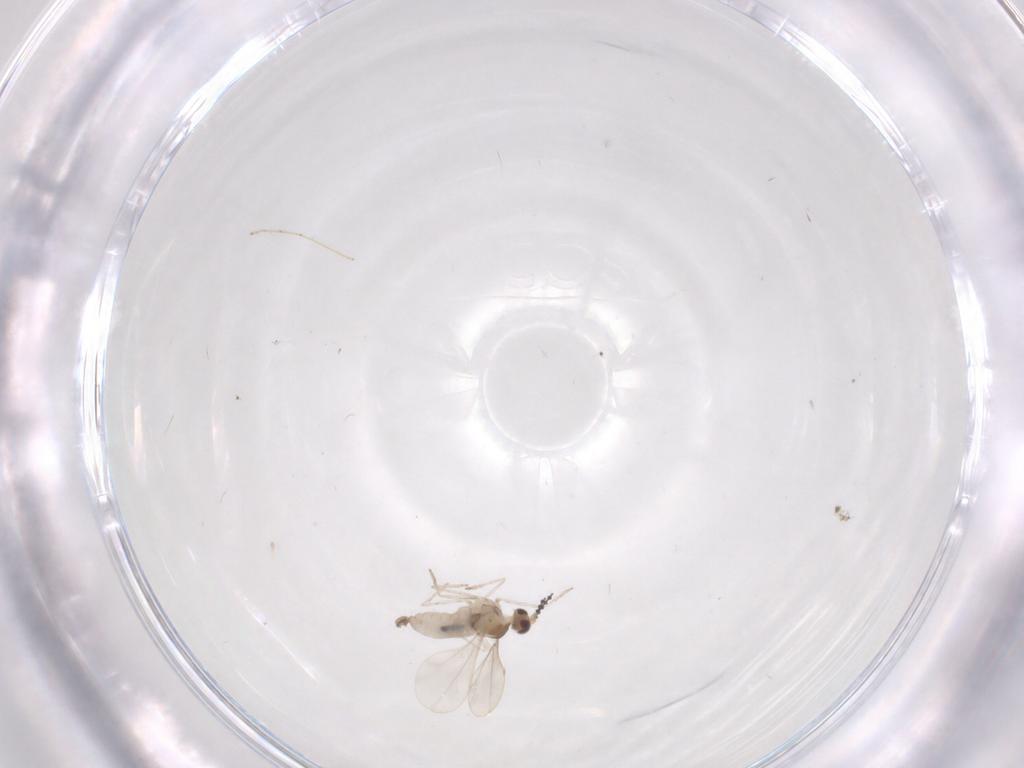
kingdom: Animalia
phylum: Arthropoda
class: Insecta
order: Diptera
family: Cecidomyiidae
